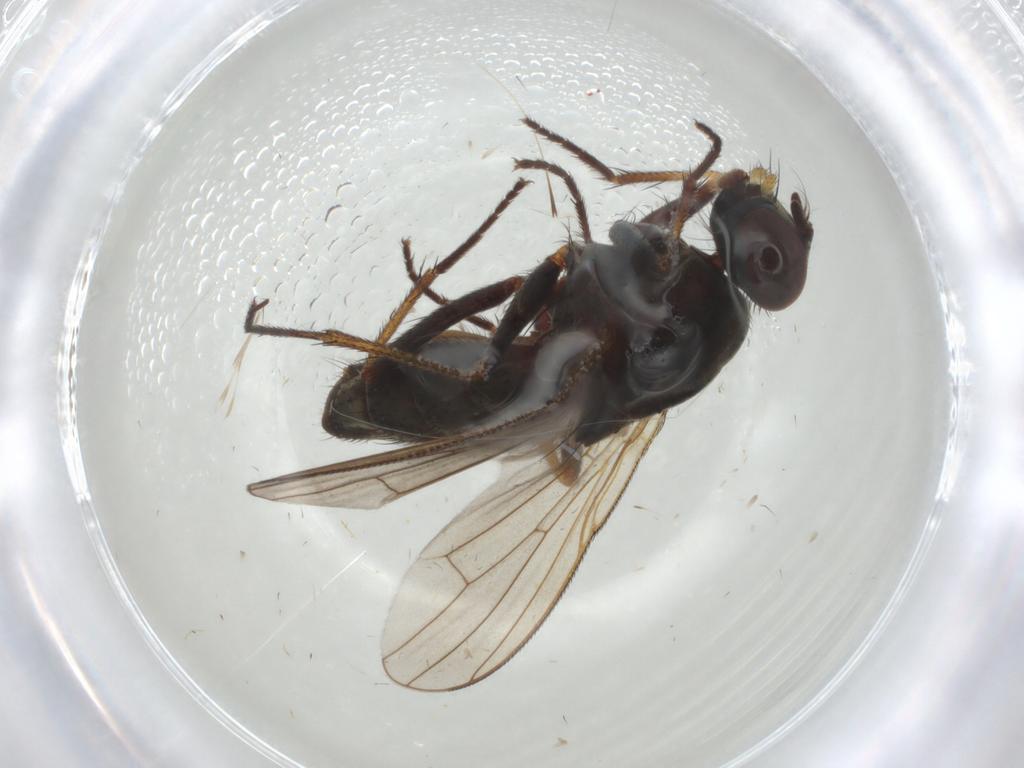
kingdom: Animalia
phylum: Arthropoda
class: Insecta
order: Diptera
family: Muscidae
